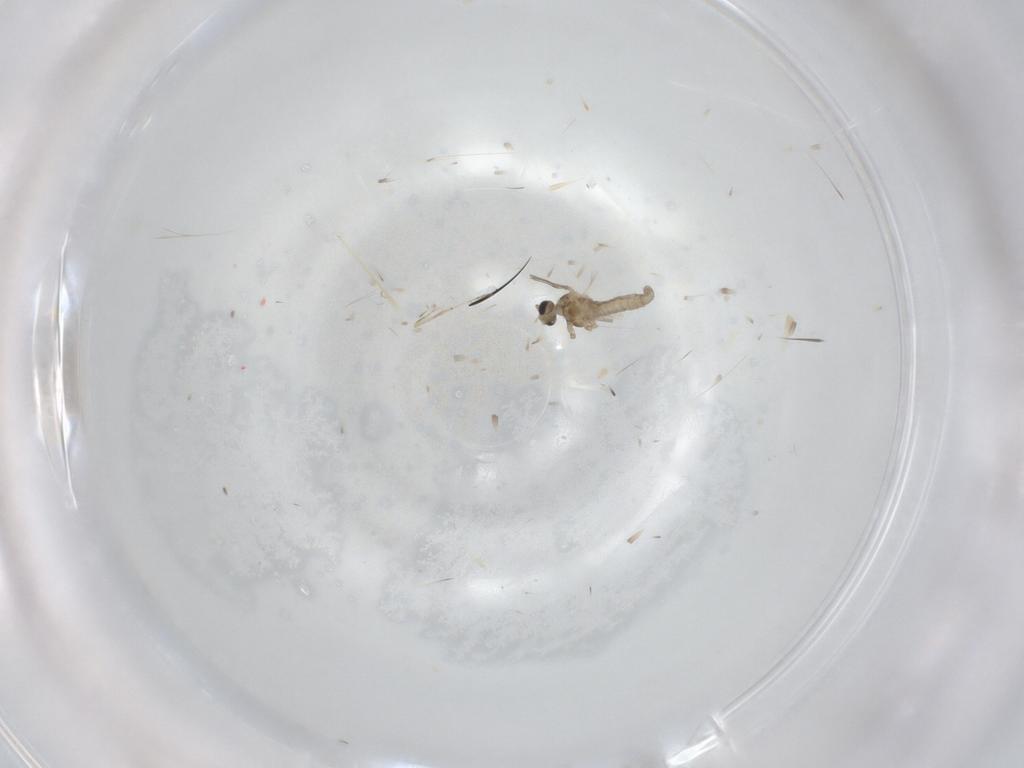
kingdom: Animalia
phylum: Arthropoda
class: Insecta
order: Diptera
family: Cecidomyiidae
